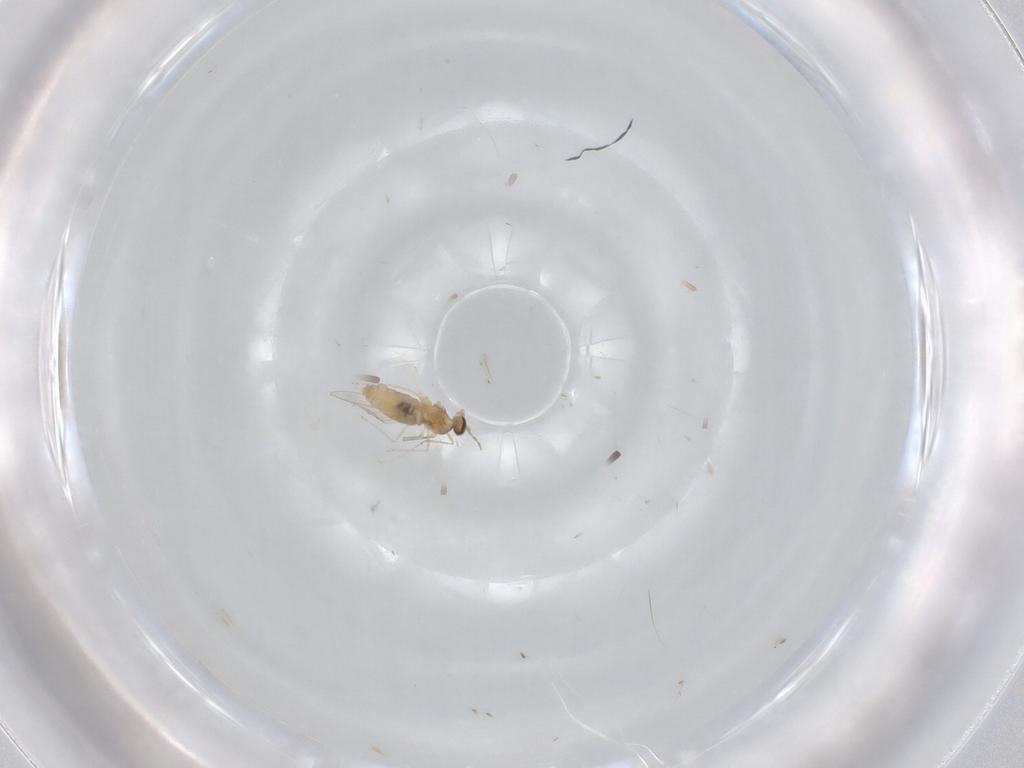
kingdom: Animalia
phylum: Arthropoda
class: Insecta
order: Diptera
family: Cecidomyiidae
